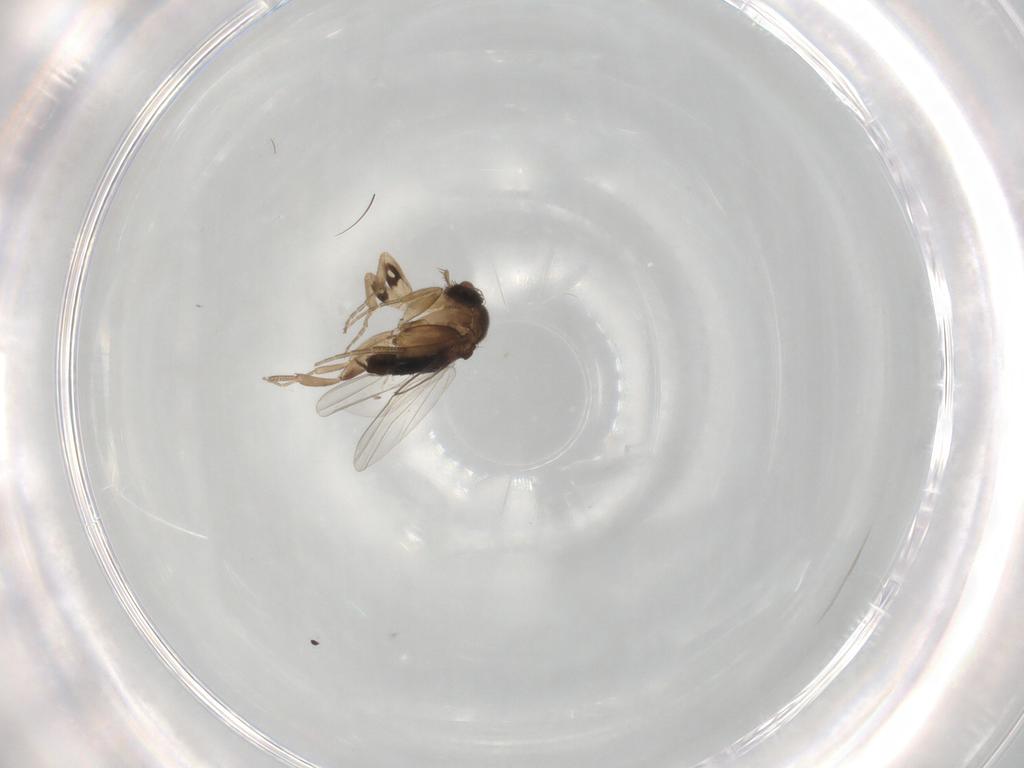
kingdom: Animalia
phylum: Arthropoda
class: Insecta
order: Diptera
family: Phoridae
